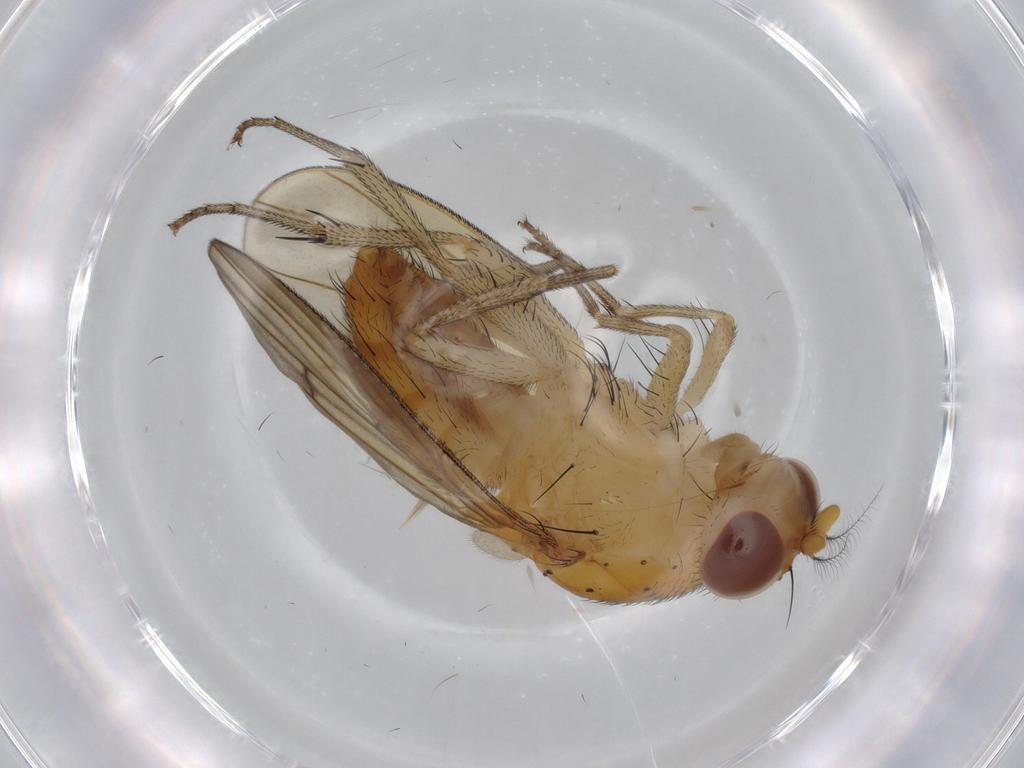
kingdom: Animalia
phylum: Arthropoda
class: Insecta
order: Diptera
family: Lauxaniidae
